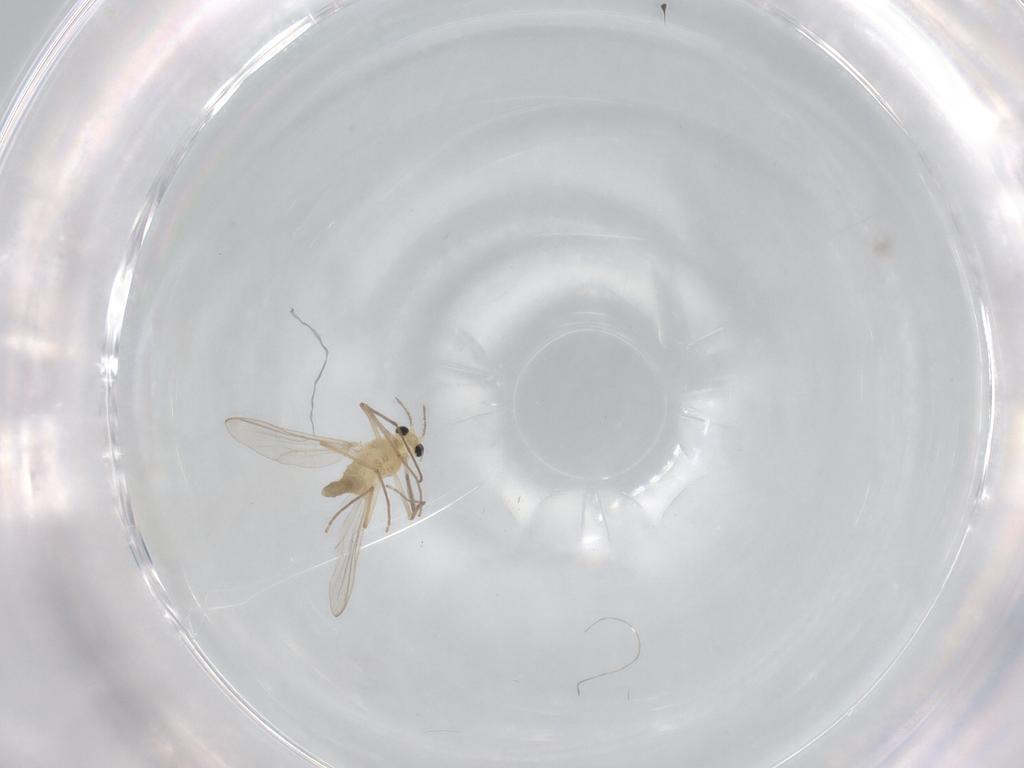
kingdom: Animalia
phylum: Arthropoda
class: Insecta
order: Diptera
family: Chironomidae
